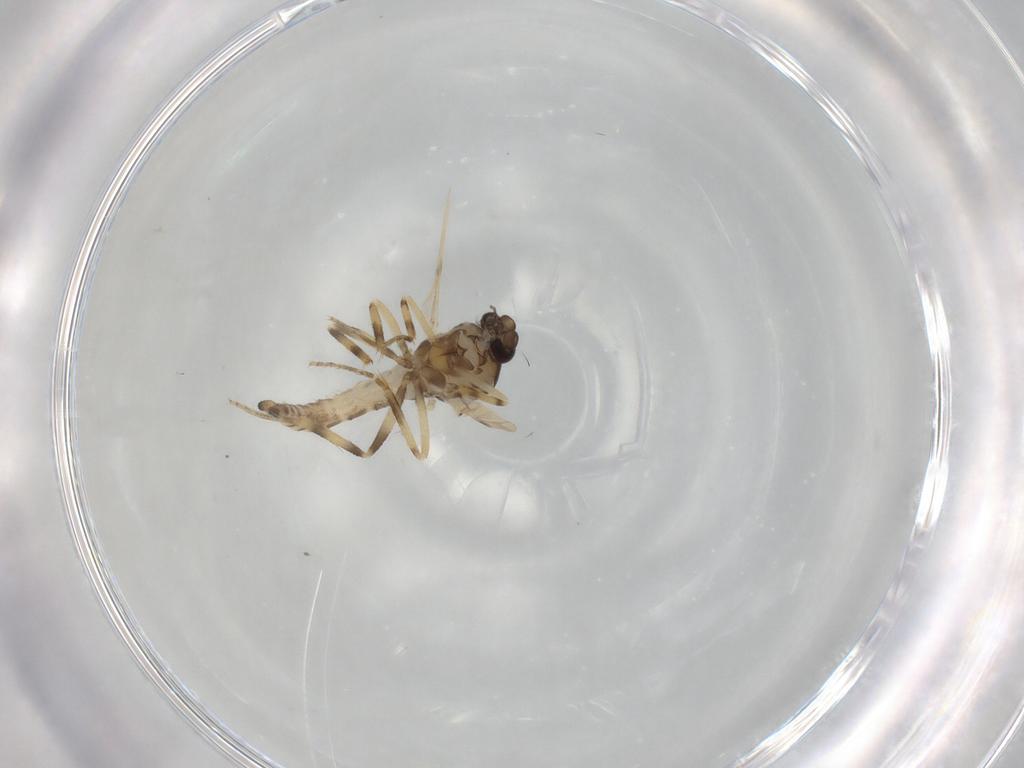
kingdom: Animalia
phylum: Arthropoda
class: Insecta
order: Diptera
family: Ceratopogonidae
